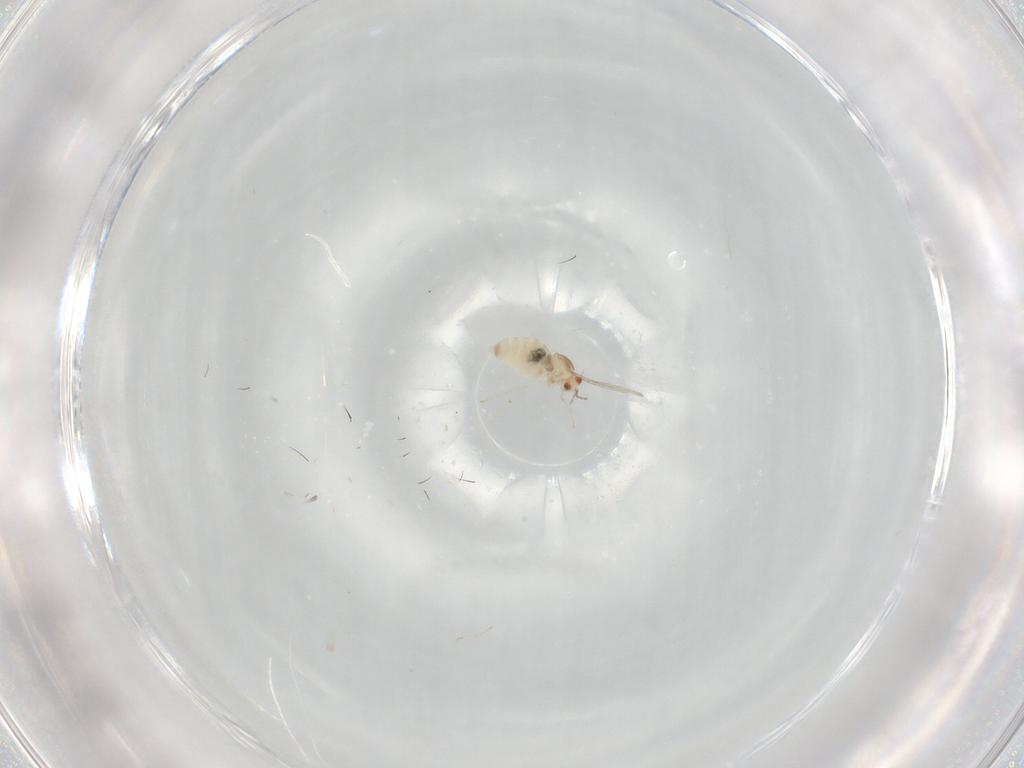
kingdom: Animalia
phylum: Arthropoda
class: Insecta
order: Diptera
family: Cecidomyiidae
